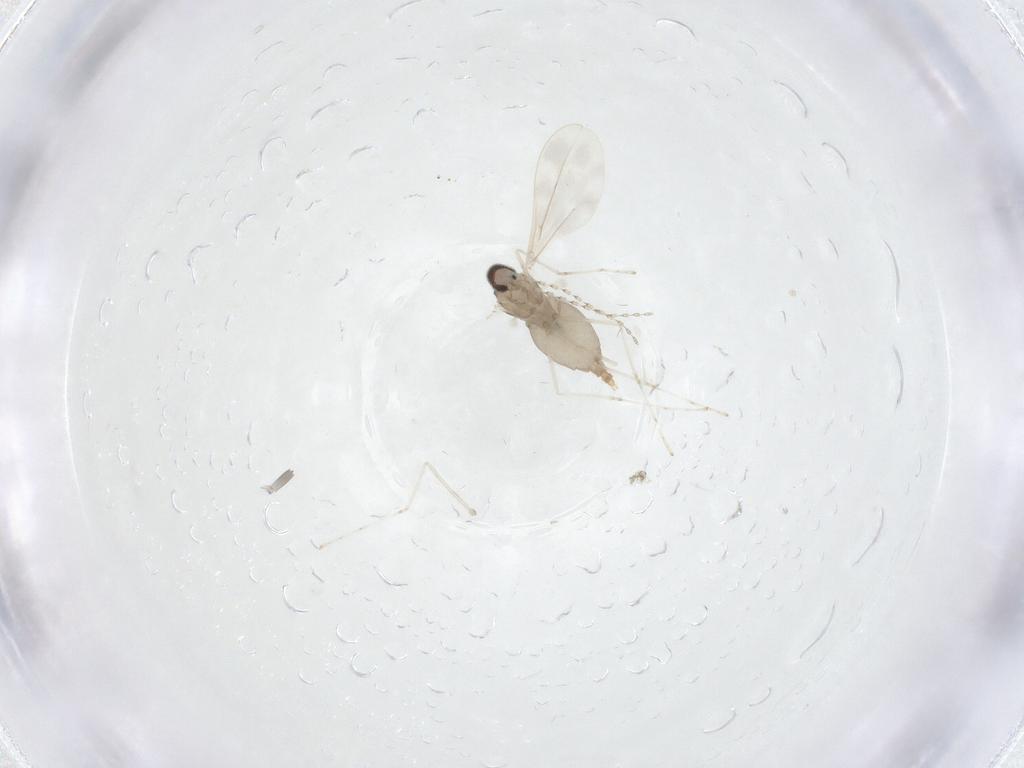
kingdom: Animalia
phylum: Arthropoda
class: Insecta
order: Diptera
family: Cecidomyiidae
